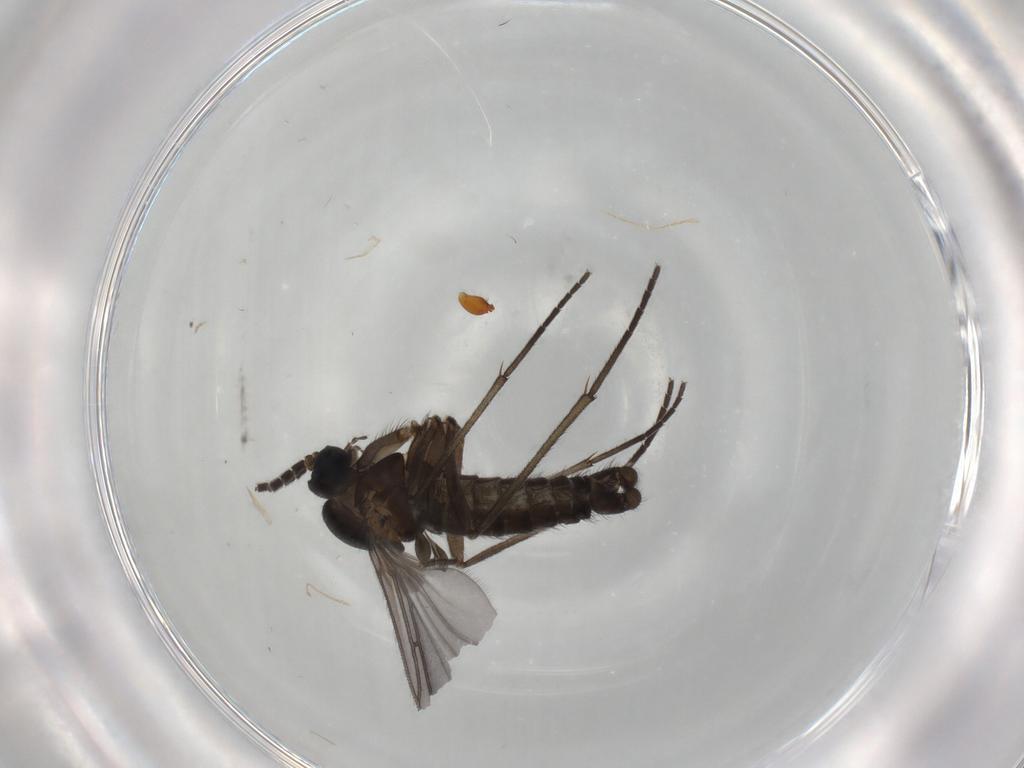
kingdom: Animalia
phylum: Arthropoda
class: Insecta
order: Diptera
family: Sciaridae
